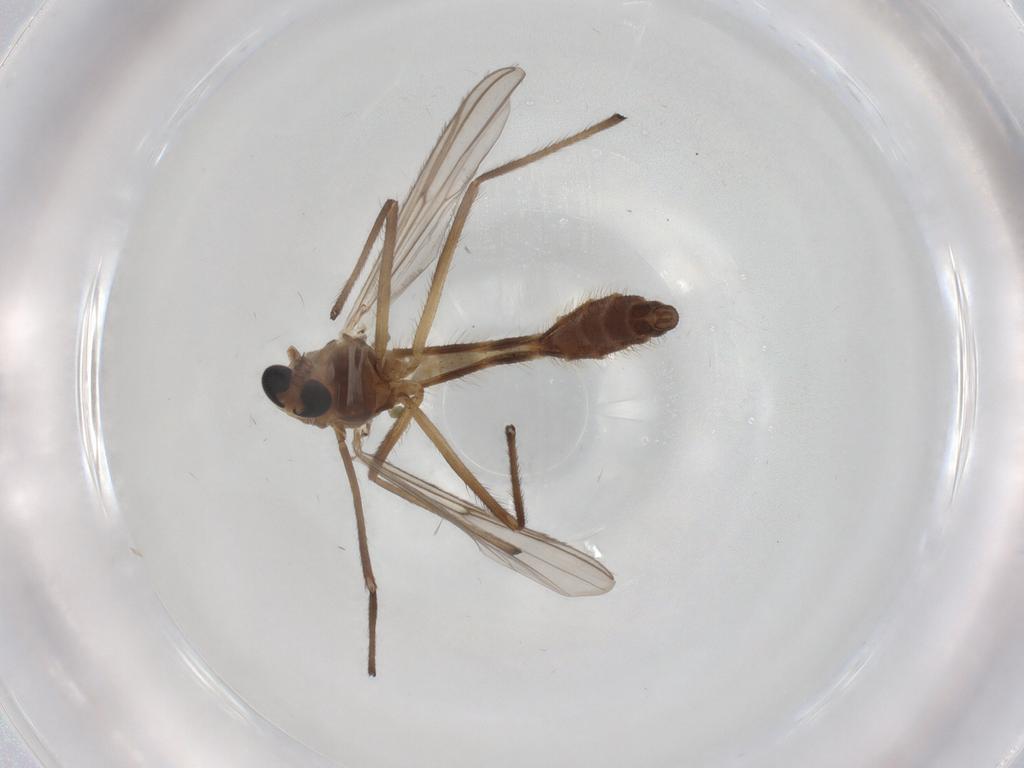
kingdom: Animalia
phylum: Arthropoda
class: Insecta
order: Diptera
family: Chironomidae
